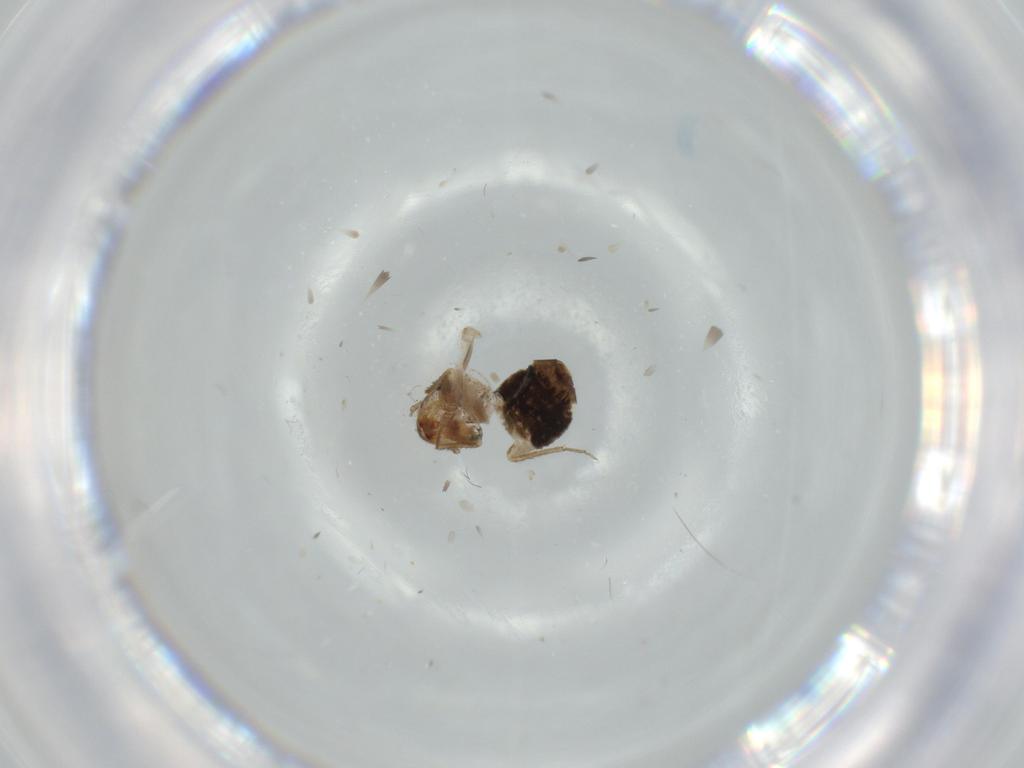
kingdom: Animalia
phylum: Arthropoda
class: Insecta
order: Blattodea
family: Ectobiidae
